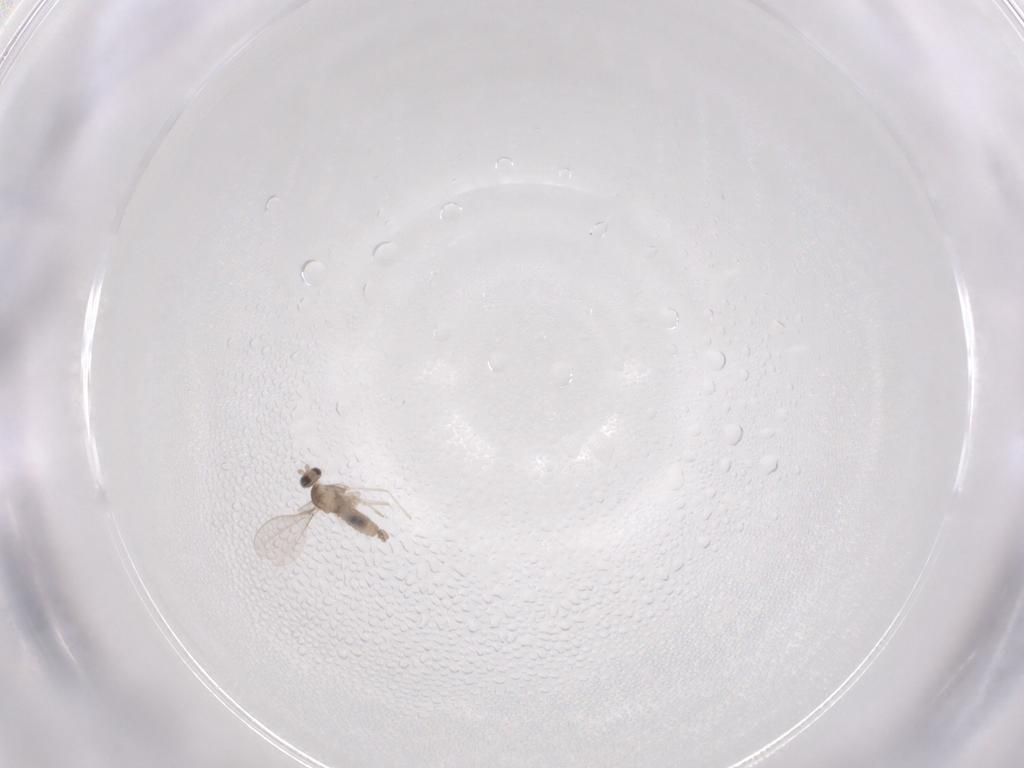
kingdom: Animalia
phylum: Arthropoda
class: Insecta
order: Diptera
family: Cecidomyiidae
